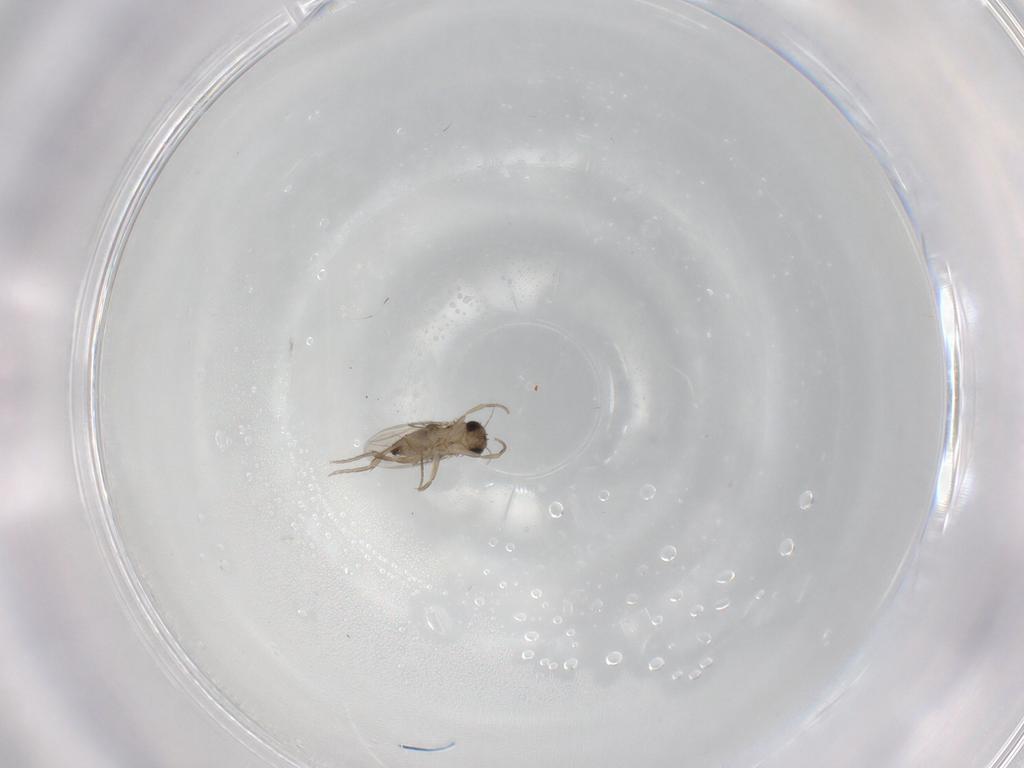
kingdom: Animalia
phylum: Arthropoda
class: Insecta
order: Diptera
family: Phoridae
